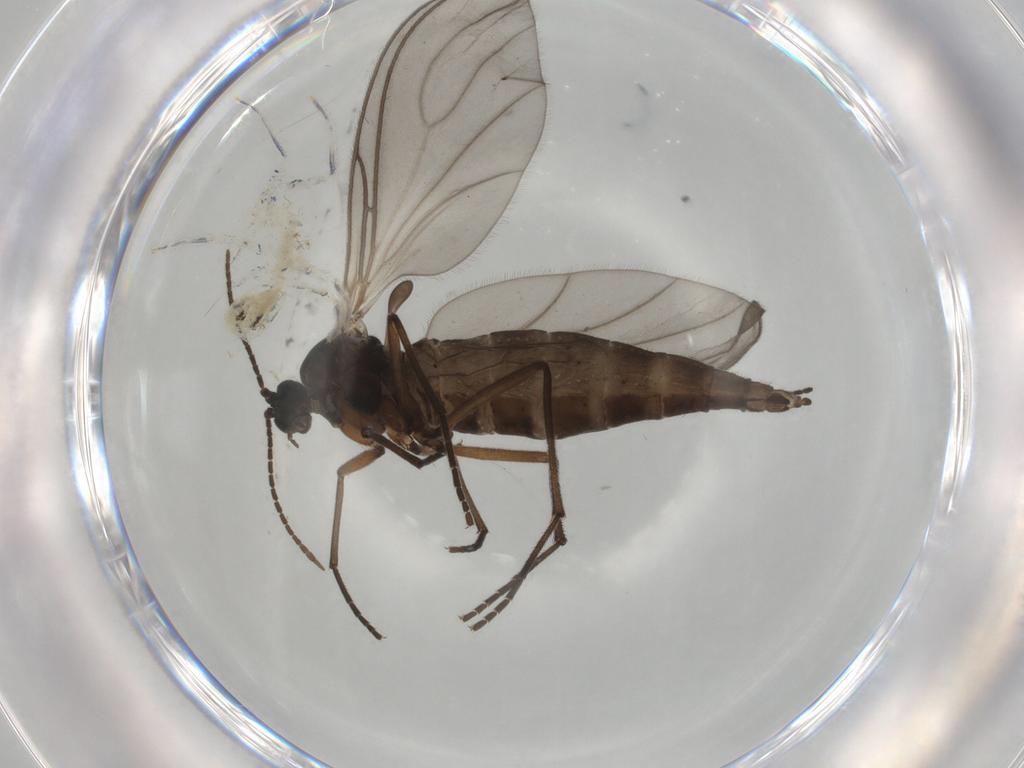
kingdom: Animalia
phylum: Arthropoda
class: Insecta
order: Diptera
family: Sciaridae
